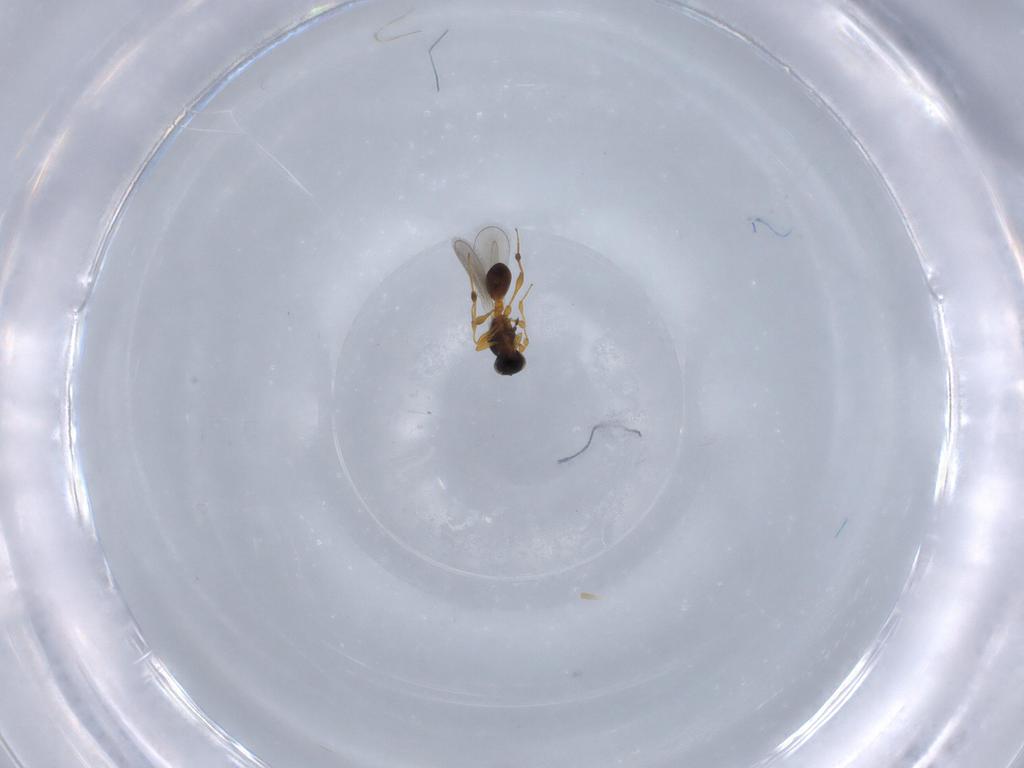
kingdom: Animalia
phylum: Arthropoda
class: Insecta
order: Hymenoptera
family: Platygastridae
